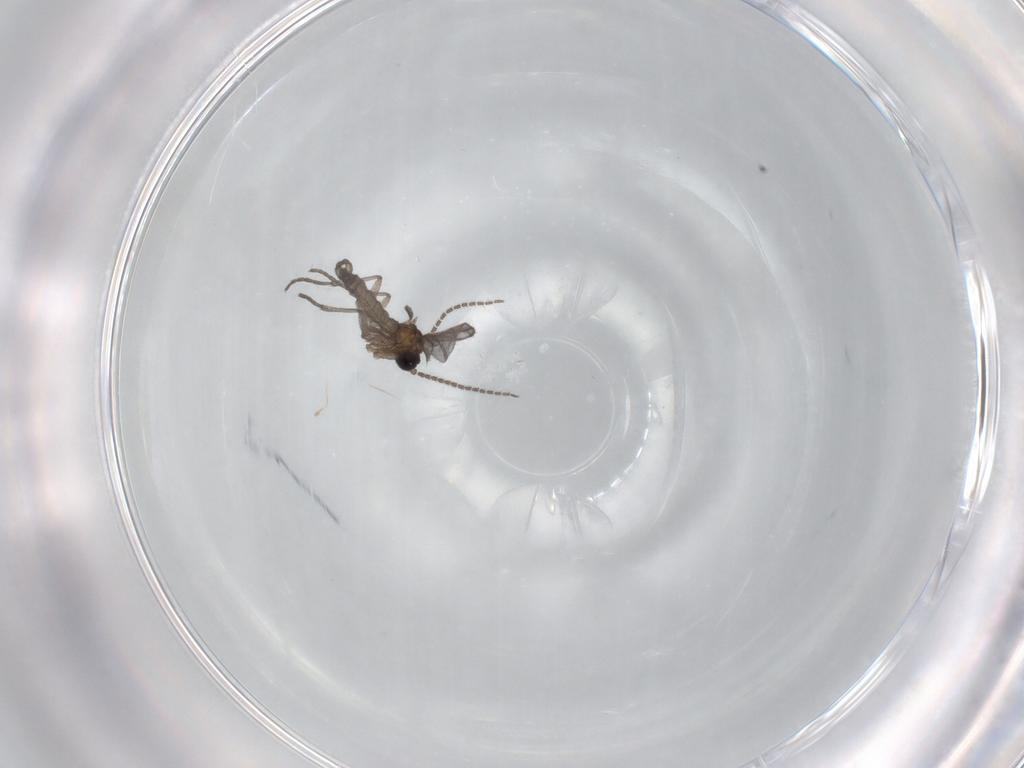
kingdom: Animalia
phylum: Arthropoda
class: Insecta
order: Diptera
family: Sciaridae
